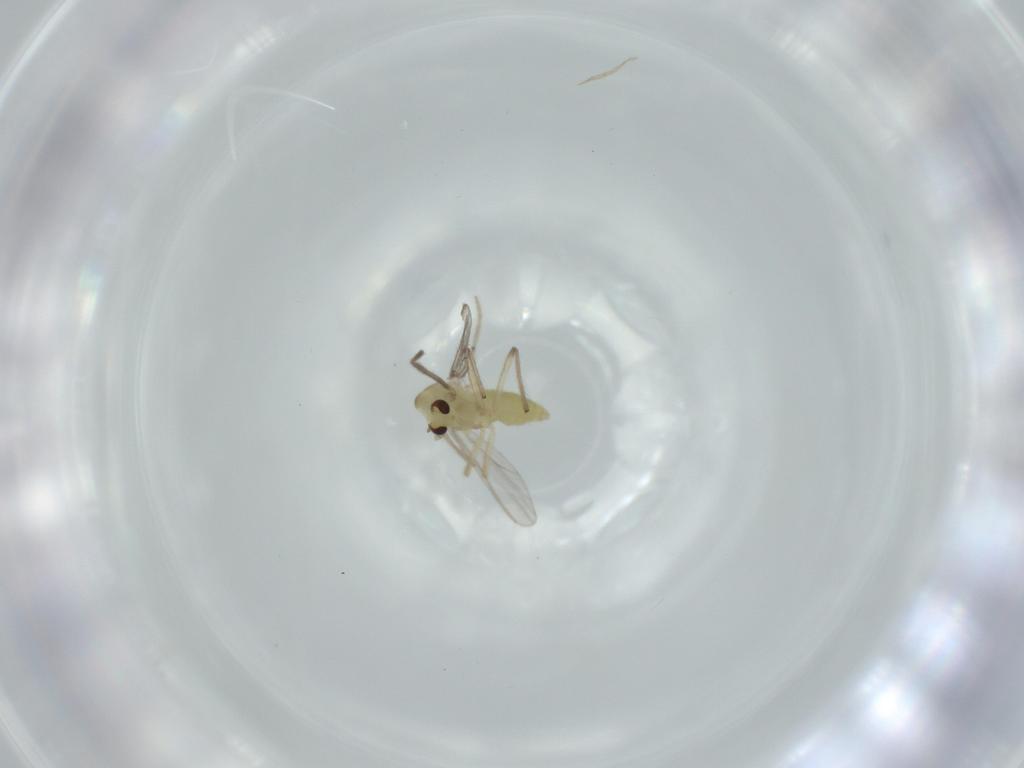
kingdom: Animalia
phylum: Arthropoda
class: Insecta
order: Diptera
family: Chironomidae
